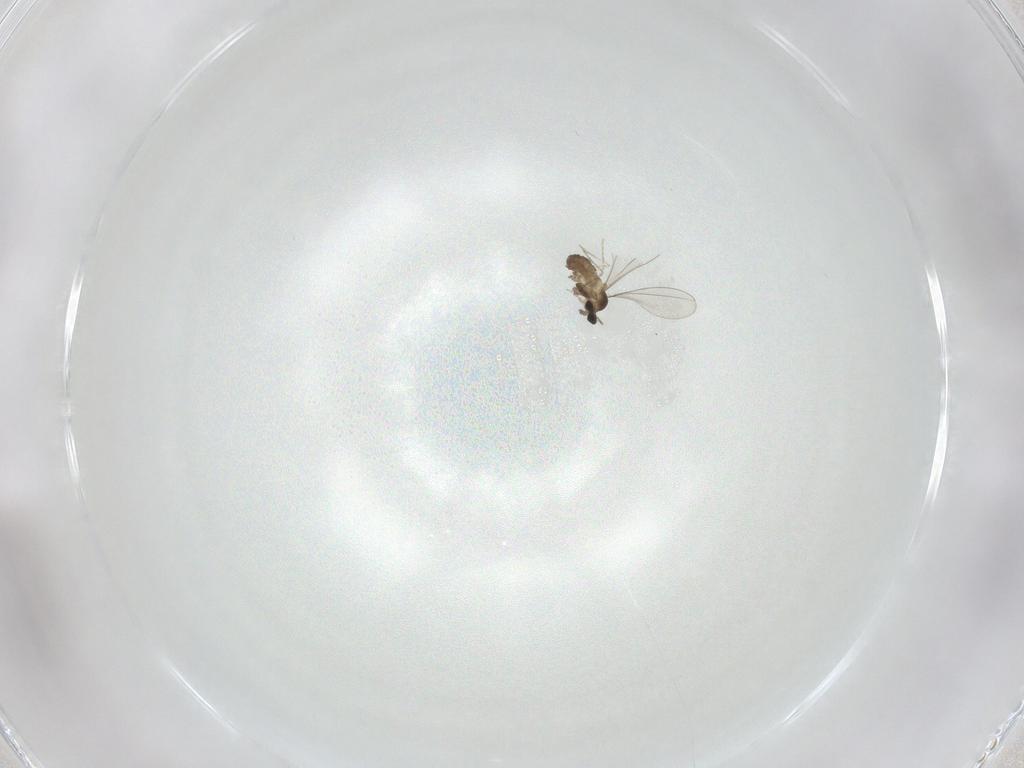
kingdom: Animalia
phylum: Arthropoda
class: Insecta
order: Diptera
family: Cecidomyiidae
